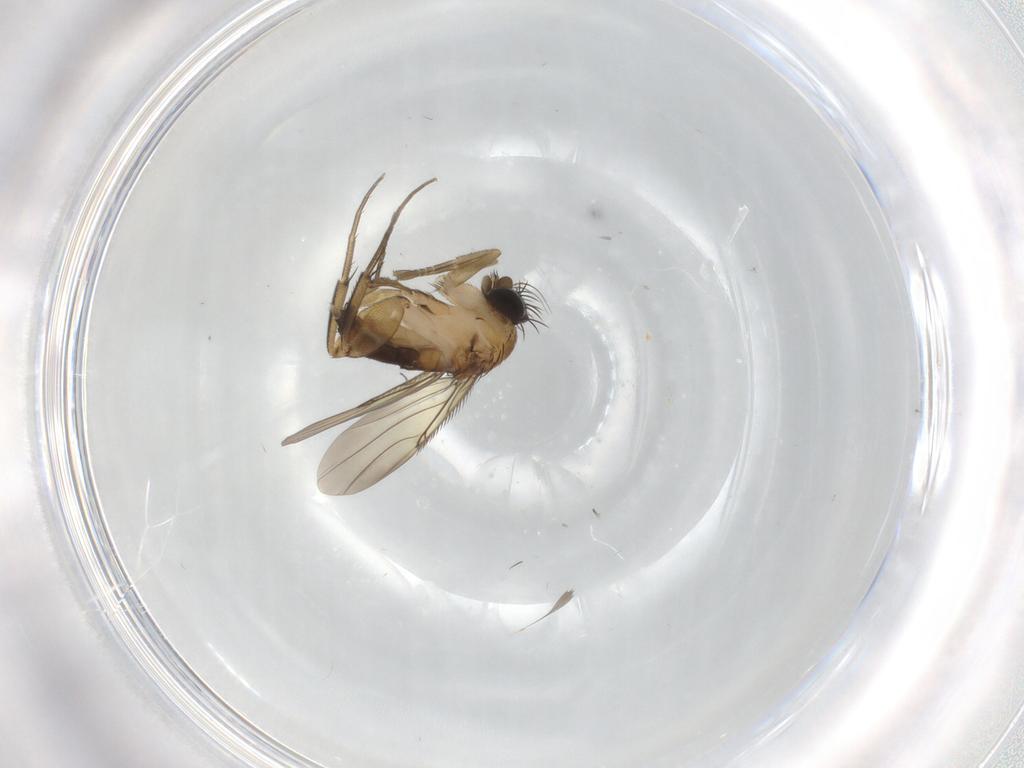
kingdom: Animalia
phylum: Arthropoda
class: Insecta
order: Diptera
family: Phoridae
